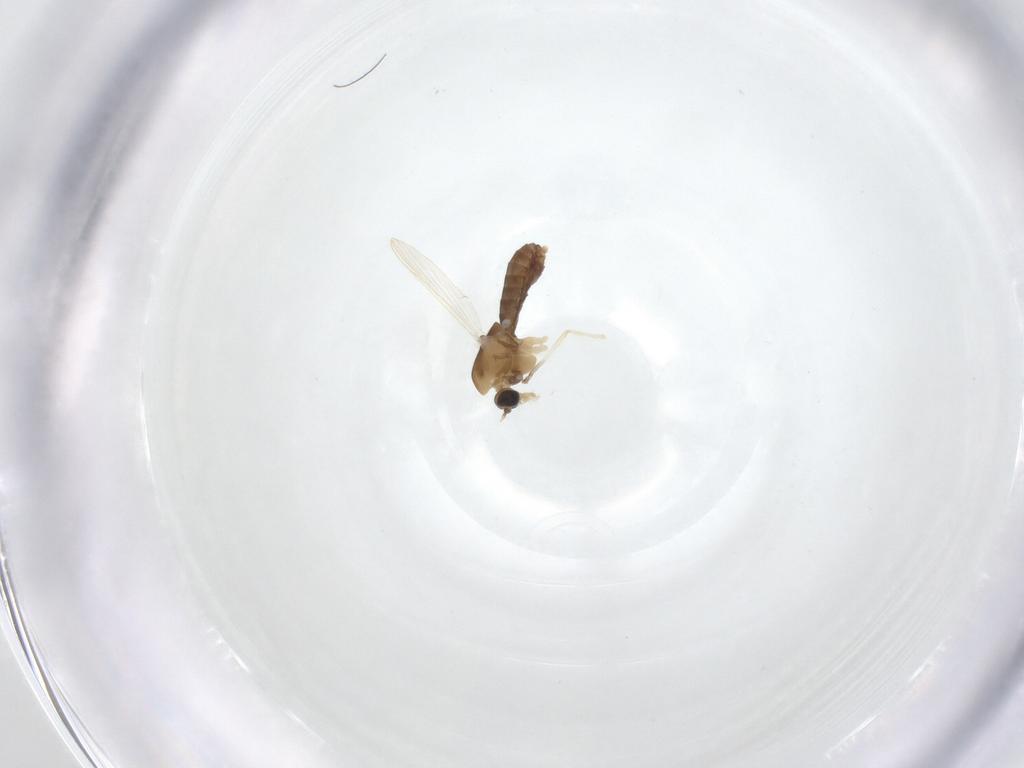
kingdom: Animalia
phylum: Arthropoda
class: Insecta
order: Diptera
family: Chironomidae
